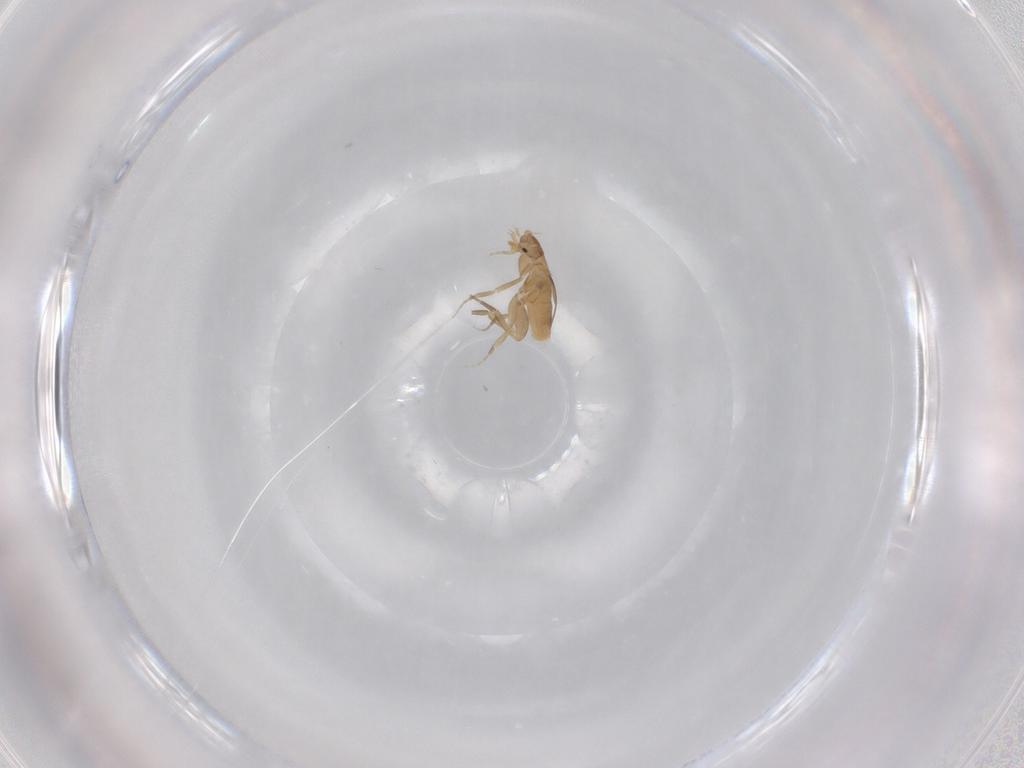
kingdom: Animalia
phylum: Arthropoda
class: Insecta
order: Diptera
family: Phoridae
